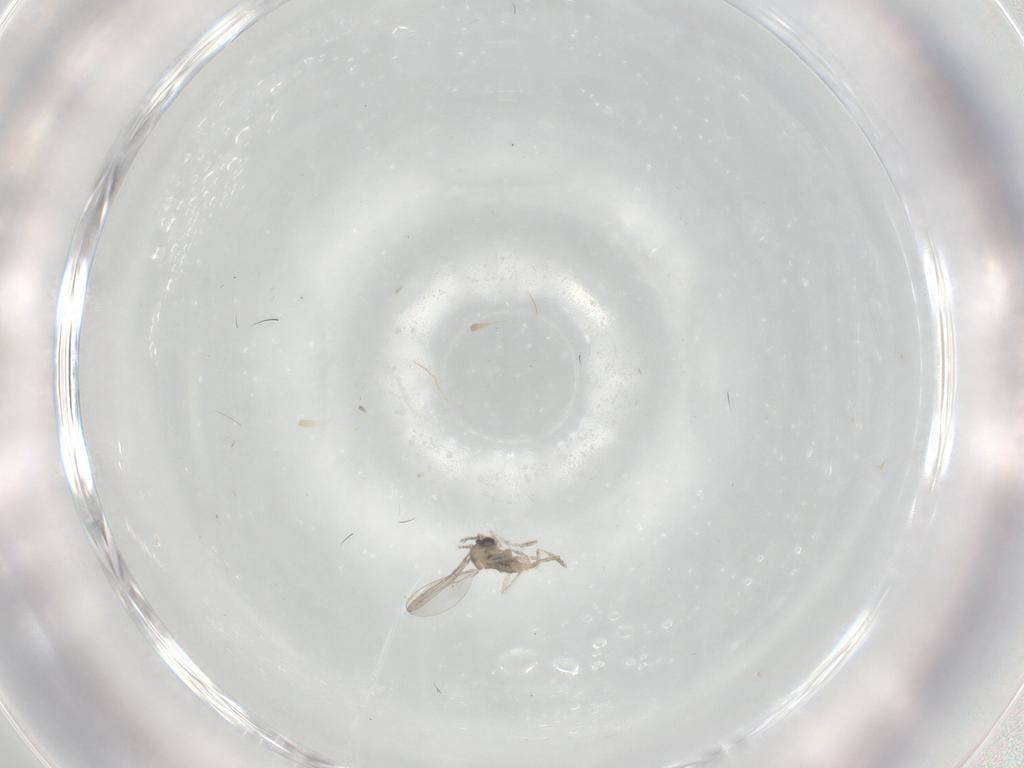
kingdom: Animalia
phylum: Arthropoda
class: Insecta
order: Diptera
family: Cecidomyiidae
